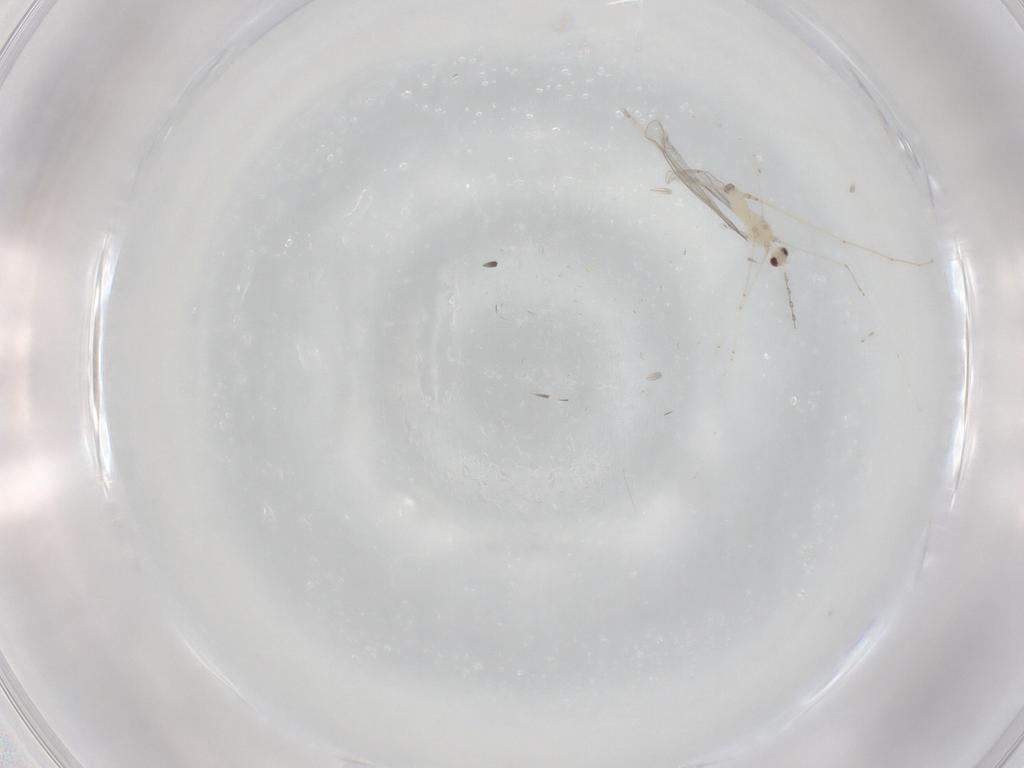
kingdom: Animalia
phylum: Arthropoda
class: Insecta
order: Diptera
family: Cecidomyiidae
